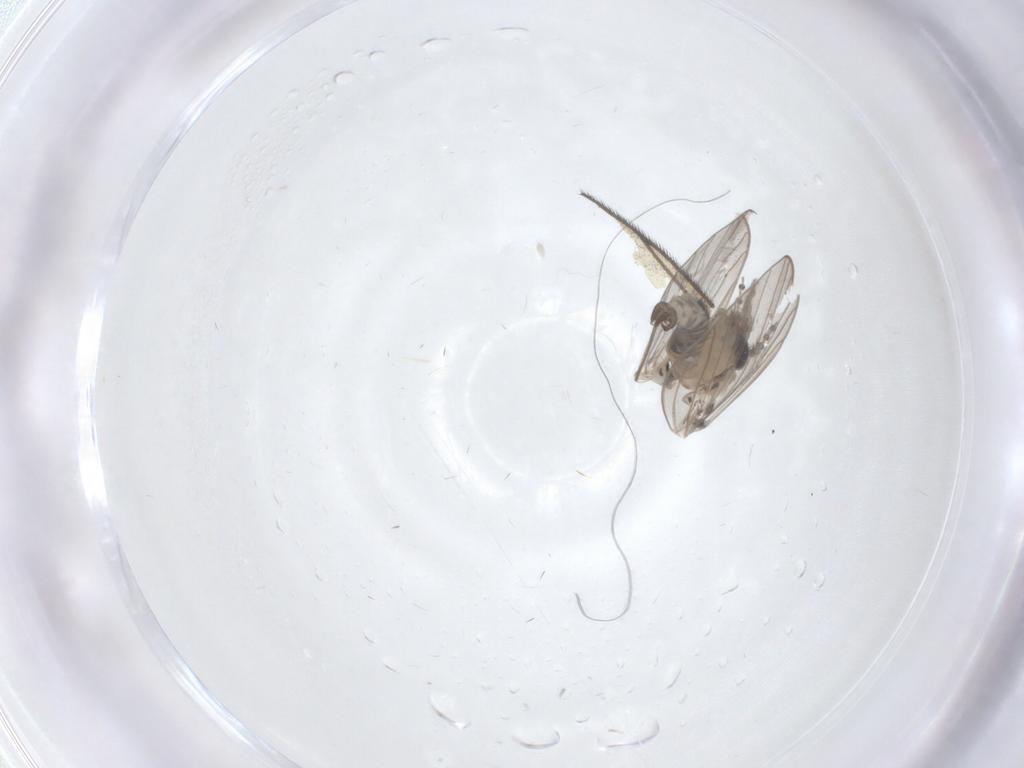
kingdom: Animalia
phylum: Arthropoda
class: Insecta
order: Diptera
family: Psychodidae
